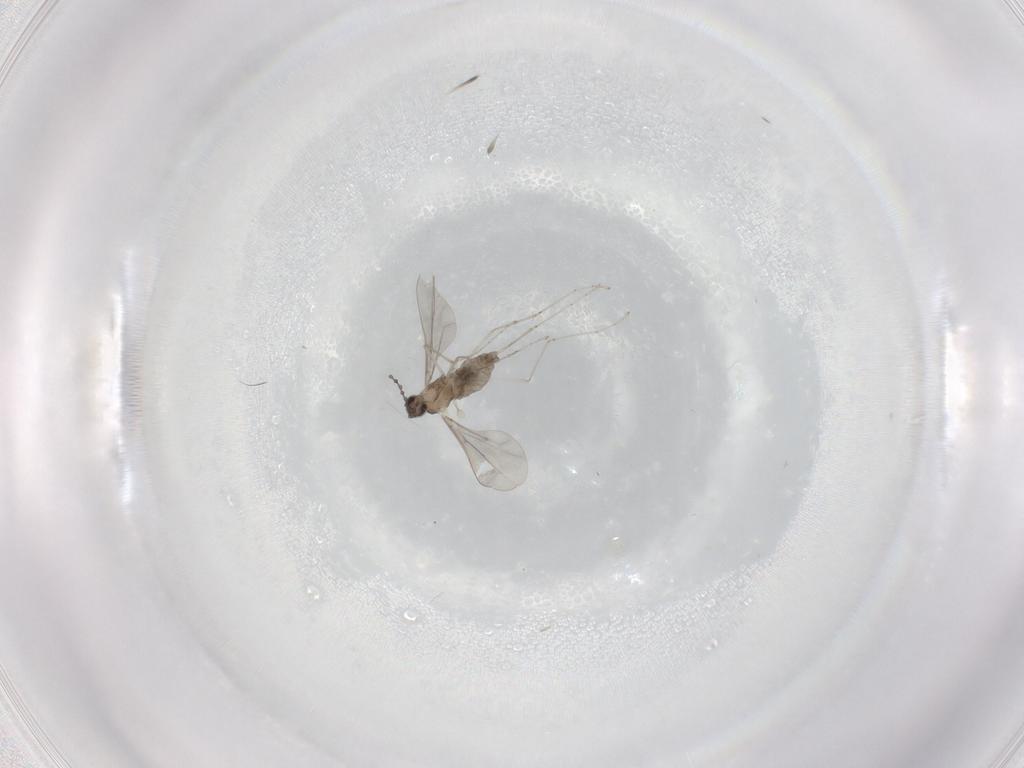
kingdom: Animalia
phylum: Arthropoda
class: Insecta
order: Diptera
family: Cecidomyiidae
